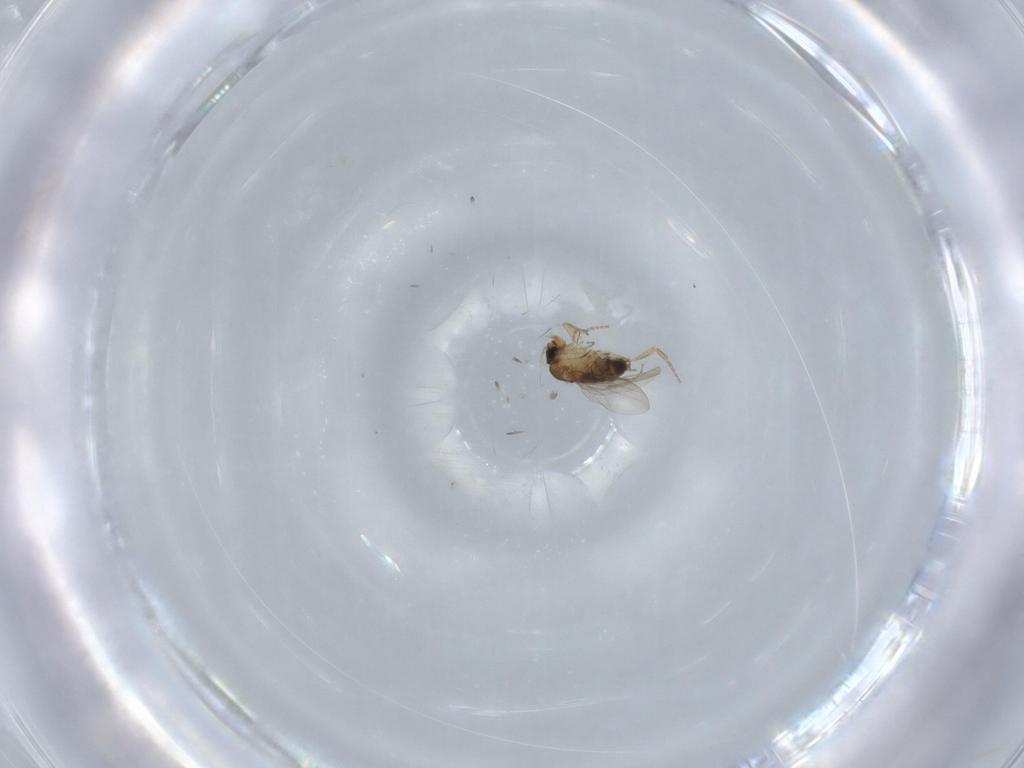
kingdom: Animalia
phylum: Arthropoda
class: Insecta
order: Diptera
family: Phoridae
